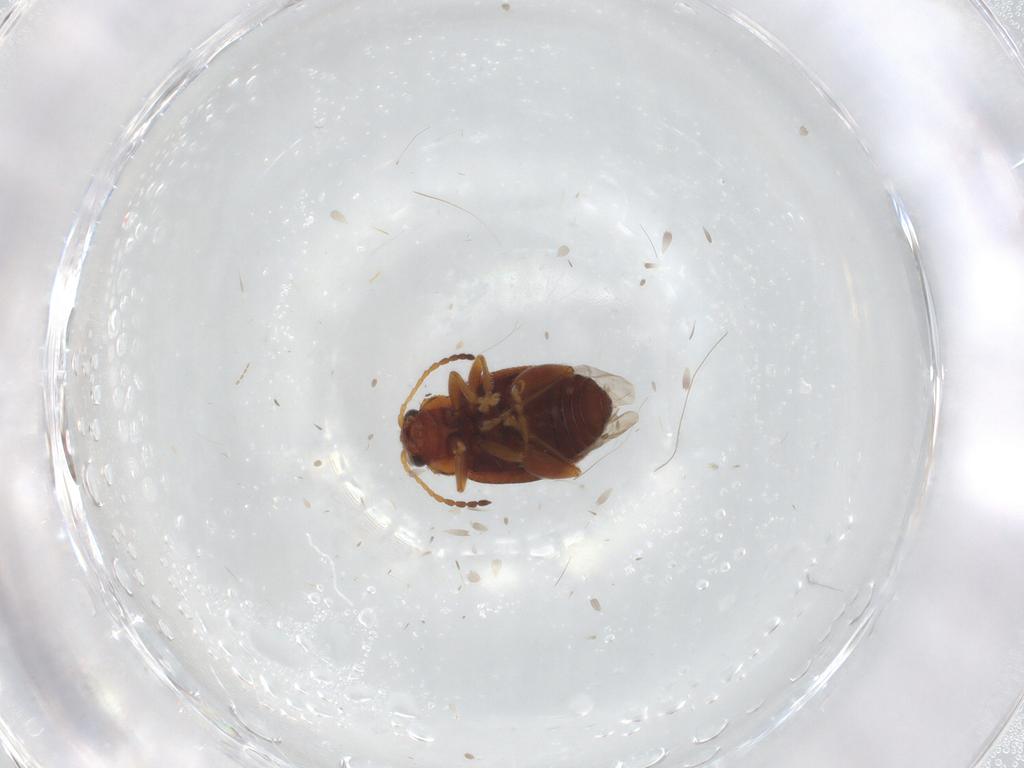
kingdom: Animalia
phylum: Arthropoda
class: Insecta
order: Coleoptera
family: Chrysomelidae
